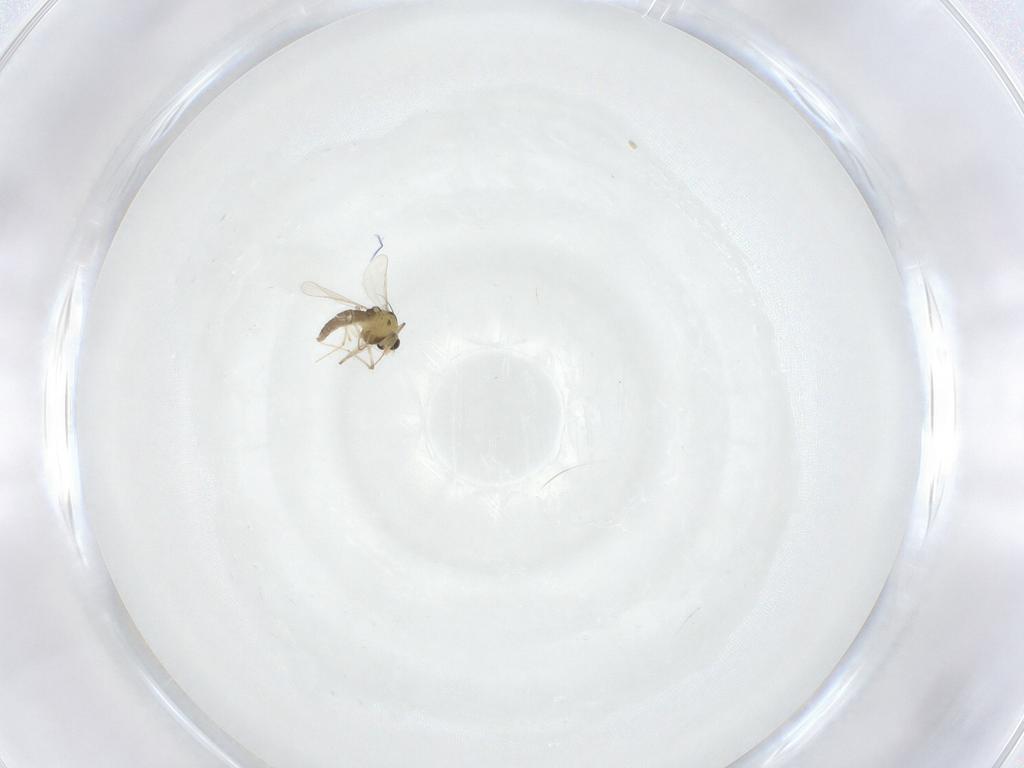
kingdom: Animalia
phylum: Arthropoda
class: Insecta
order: Diptera
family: Chironomidae
